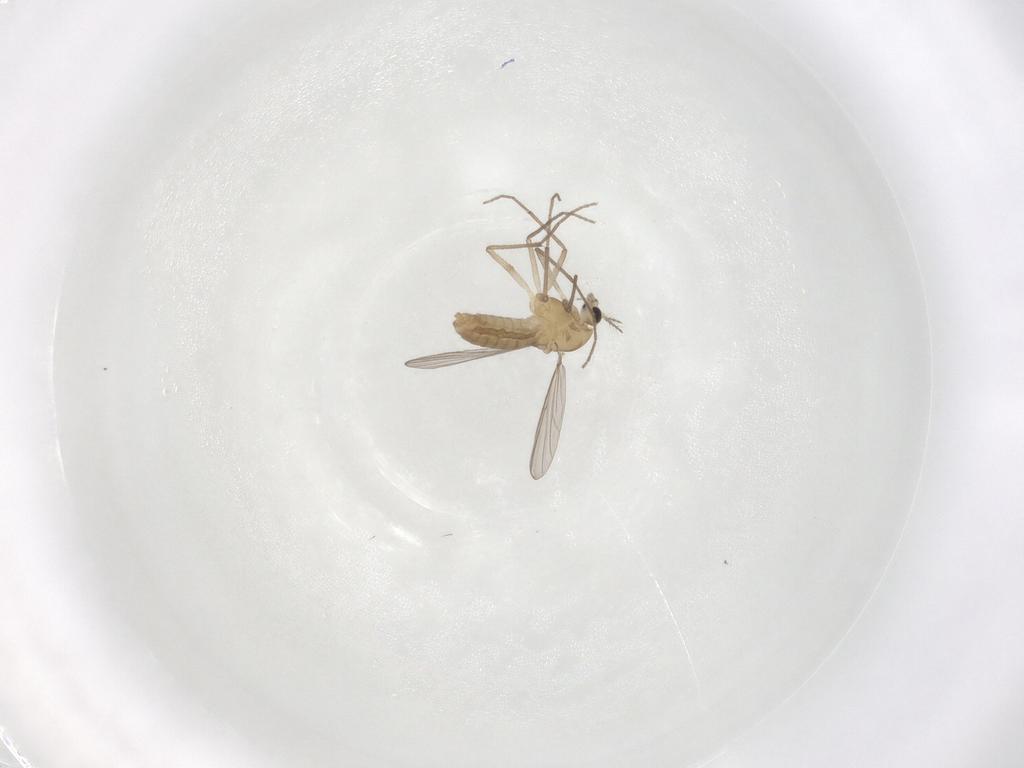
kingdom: Animalia
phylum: Arthropoda
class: Insecta
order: Diptera
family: Chironomidae
